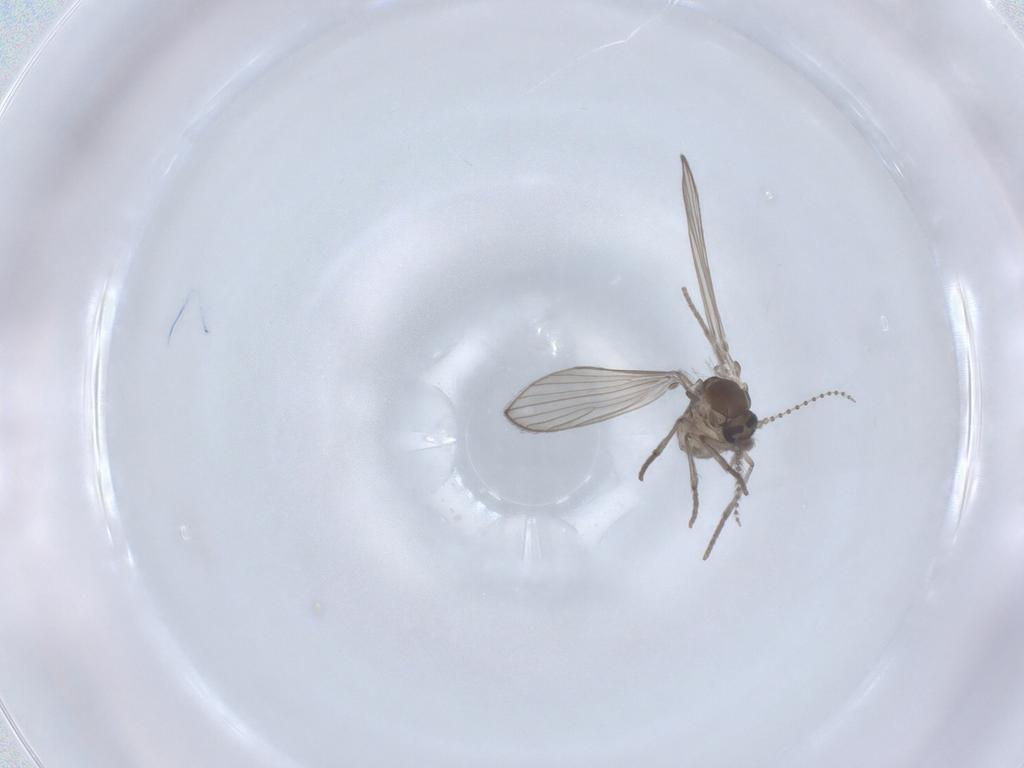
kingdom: Animalia
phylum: Arthropoda
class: Insecta
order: Diptera
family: Psychodidae
